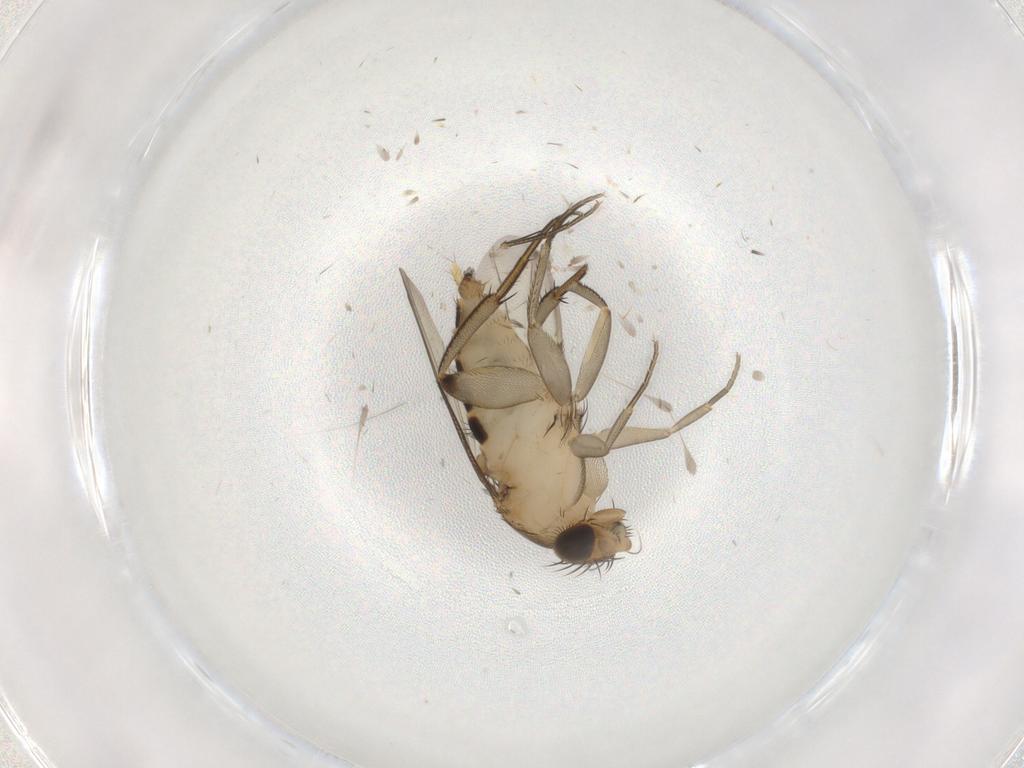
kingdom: Animalia
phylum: Arthropoda
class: Insecta
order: Diptera
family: Phoridae
